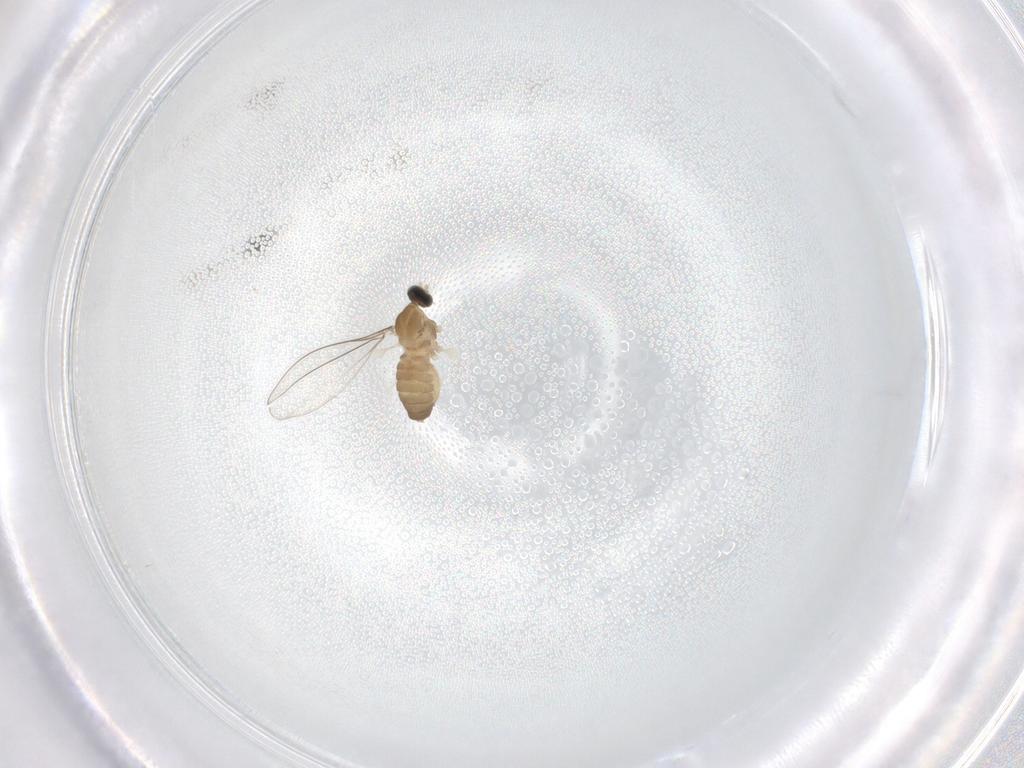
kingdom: Animalia
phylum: Arthropoda
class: Insecta
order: Diptera
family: Cecidomyiidae
